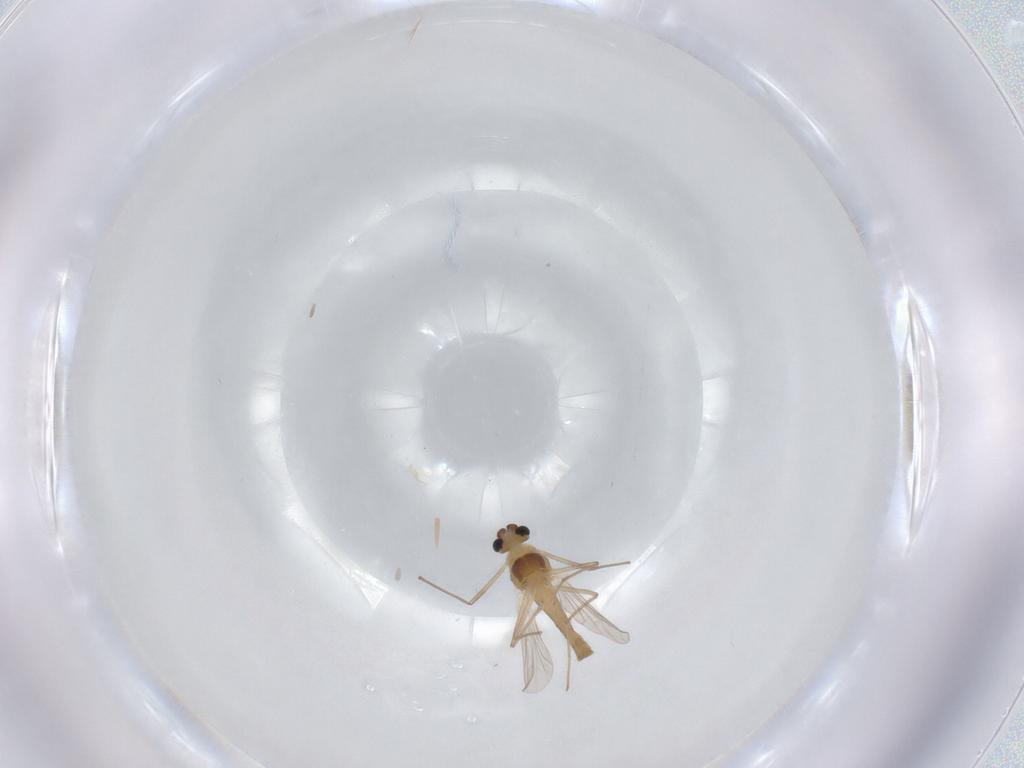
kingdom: Animalia
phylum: Arthropoda
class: Insecta
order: Diptera
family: Chironomidae
